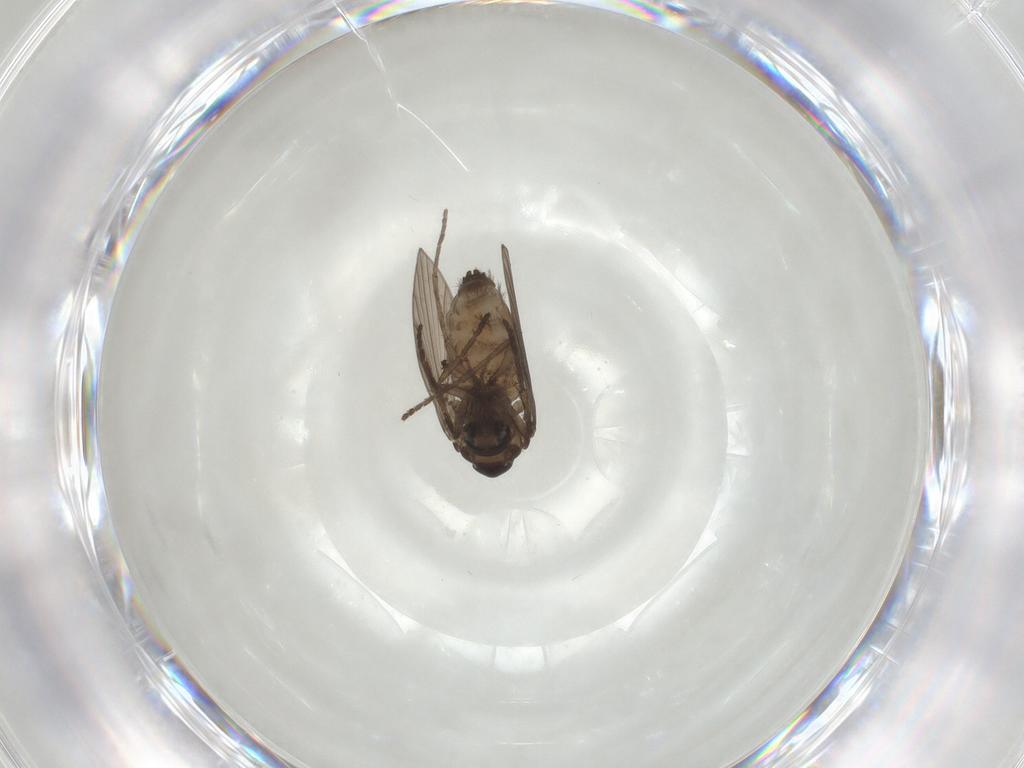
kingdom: Animalia
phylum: Arthropoda
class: Insecta
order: Diptera
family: Psychodidae
